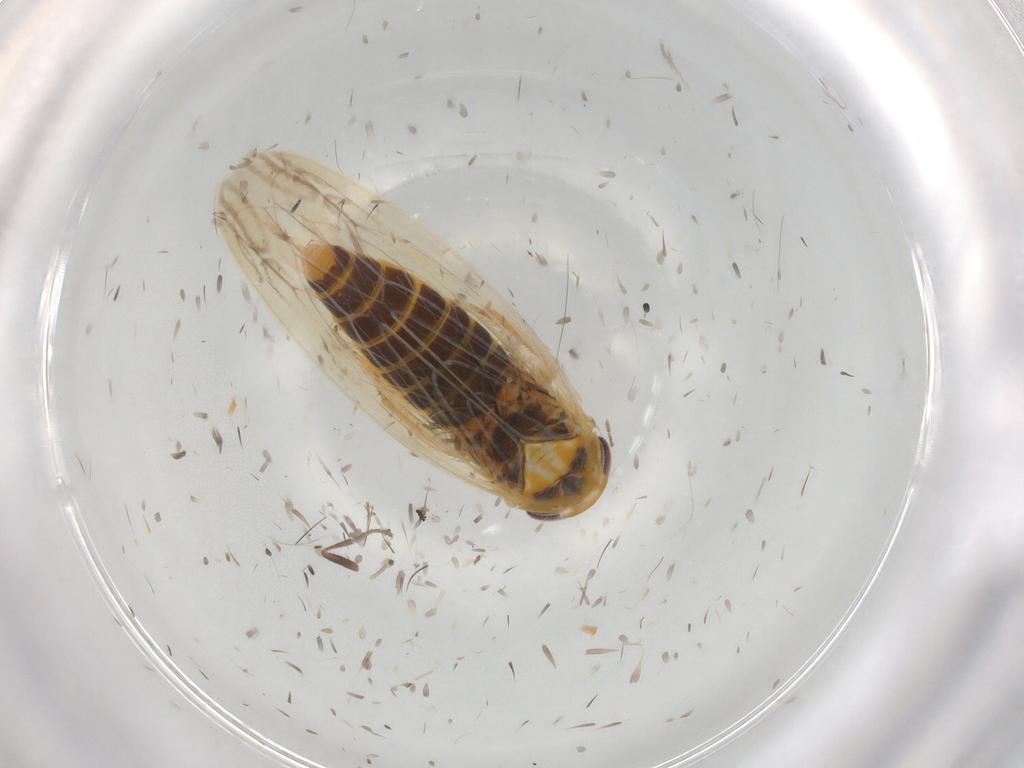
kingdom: Animalia
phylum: Arthropoda
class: Insecta
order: Hemiptera
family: Cicadellidae
